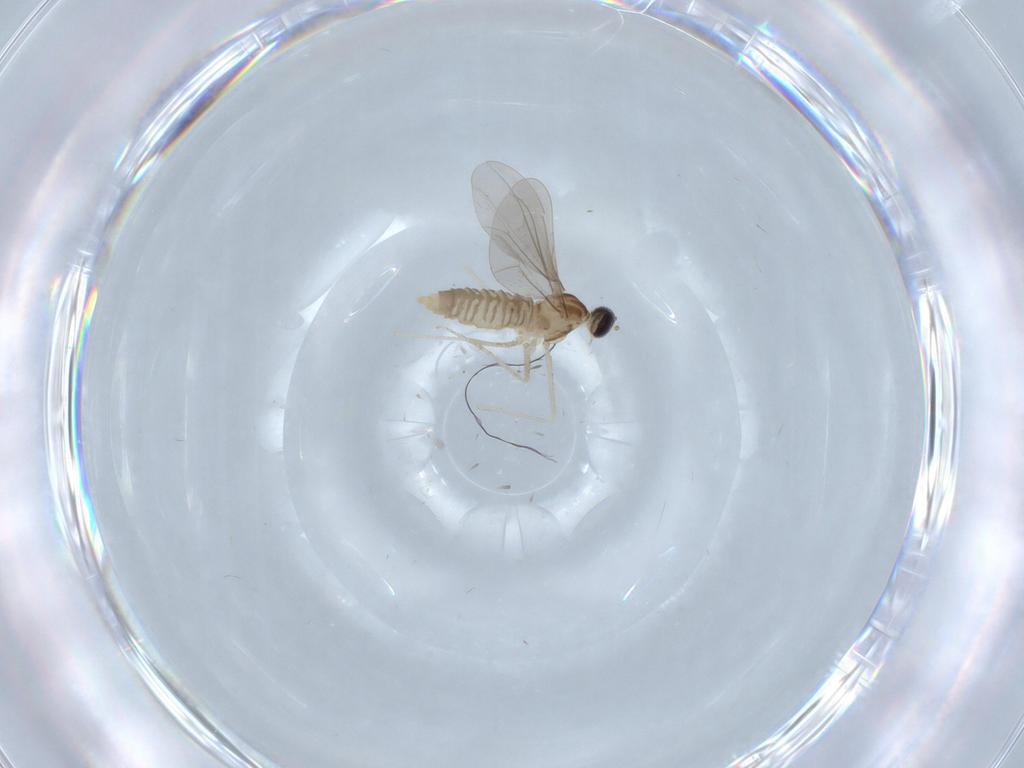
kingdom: Animalia
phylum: Arthropoda
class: Insecta
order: Diptera
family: Cecidomyiidae
